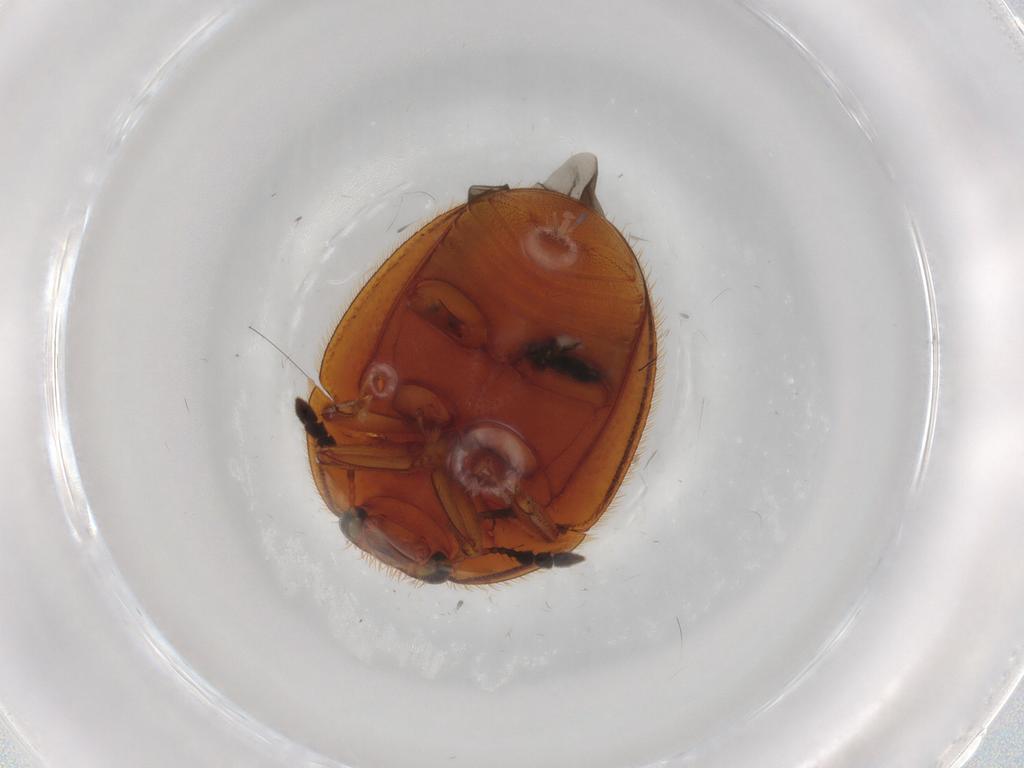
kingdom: Animalia
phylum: Arthropoda
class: Insecta
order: Coleoptera
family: Nitidulidae
